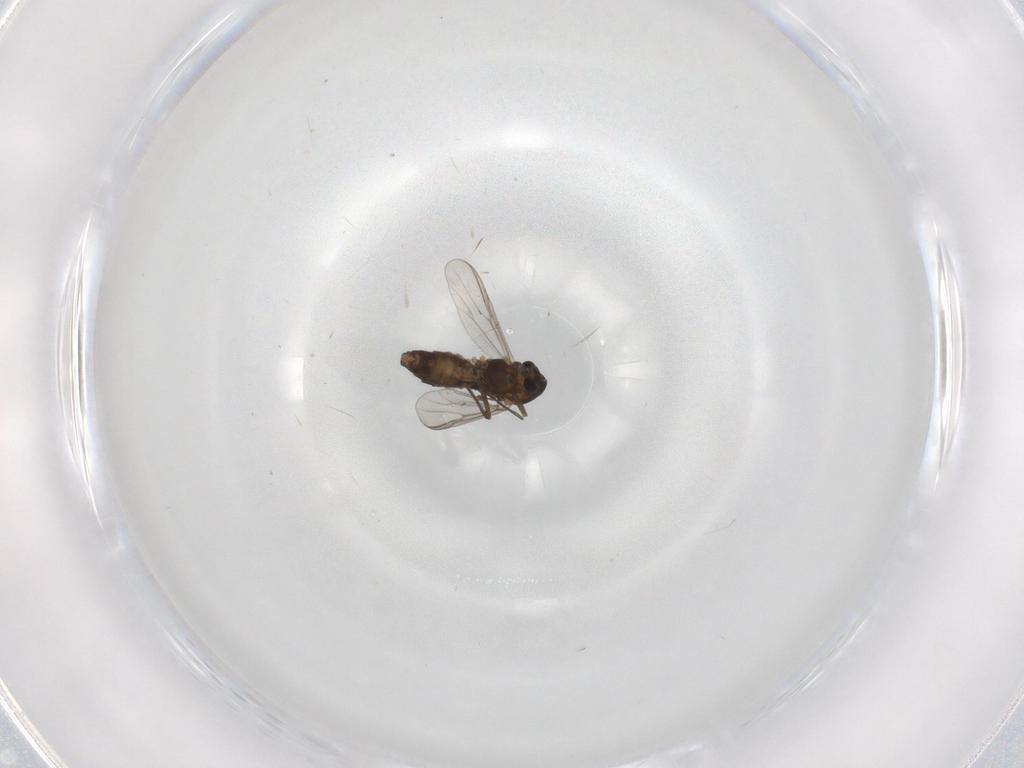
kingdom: Animalia
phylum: Arthropoda
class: Insecta
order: Diptera
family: Chironomidae
